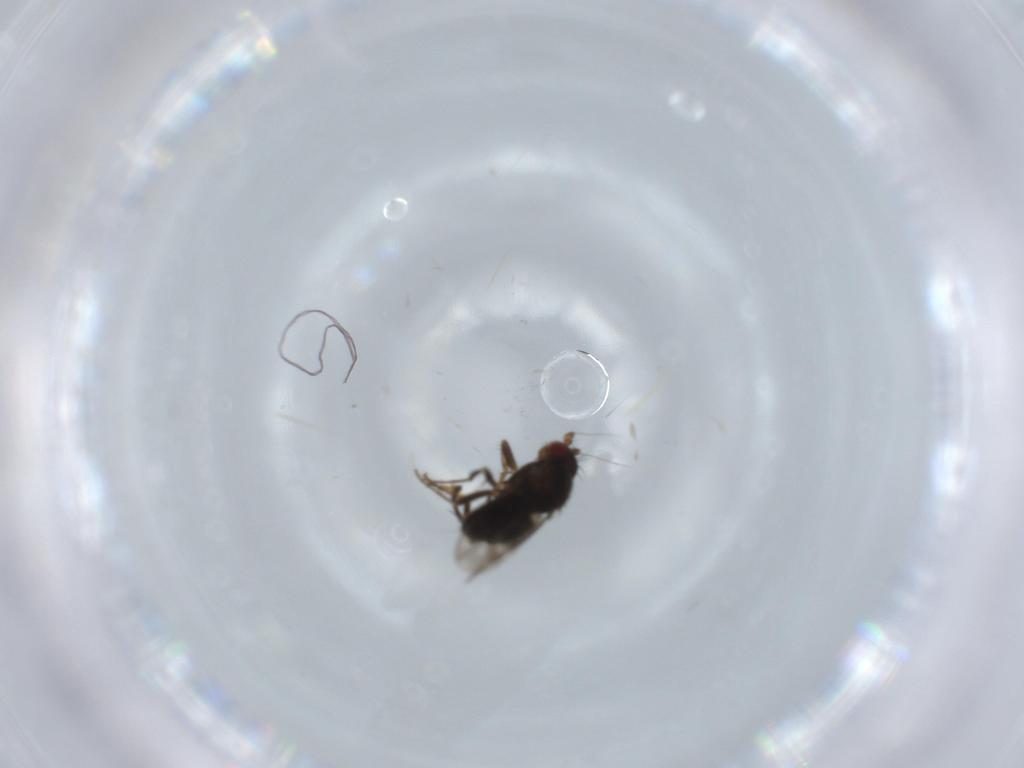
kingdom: Animalia
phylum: Arthropoda
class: Insecta
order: Diptera
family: Sphaeroceridae
